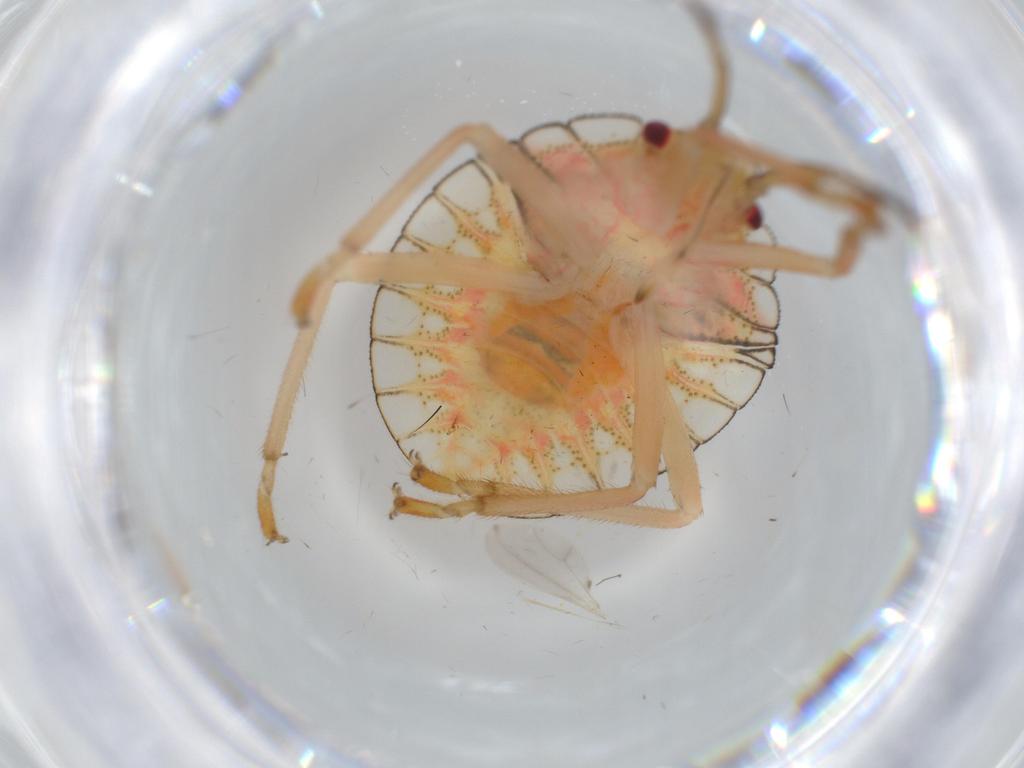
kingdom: Animalia
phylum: Arthropoda
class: Insecta
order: Hemiptera
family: Pentatomidae
